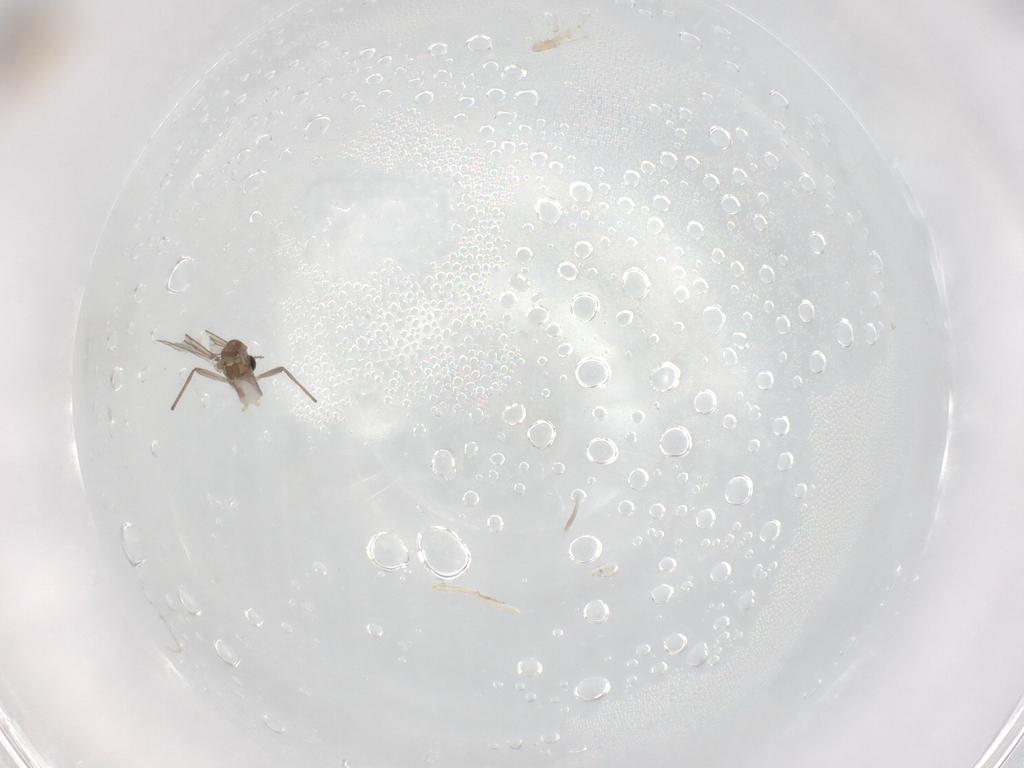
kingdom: Animalia
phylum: Arthropoda
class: Insecta
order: Diptera
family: Chironomidae
